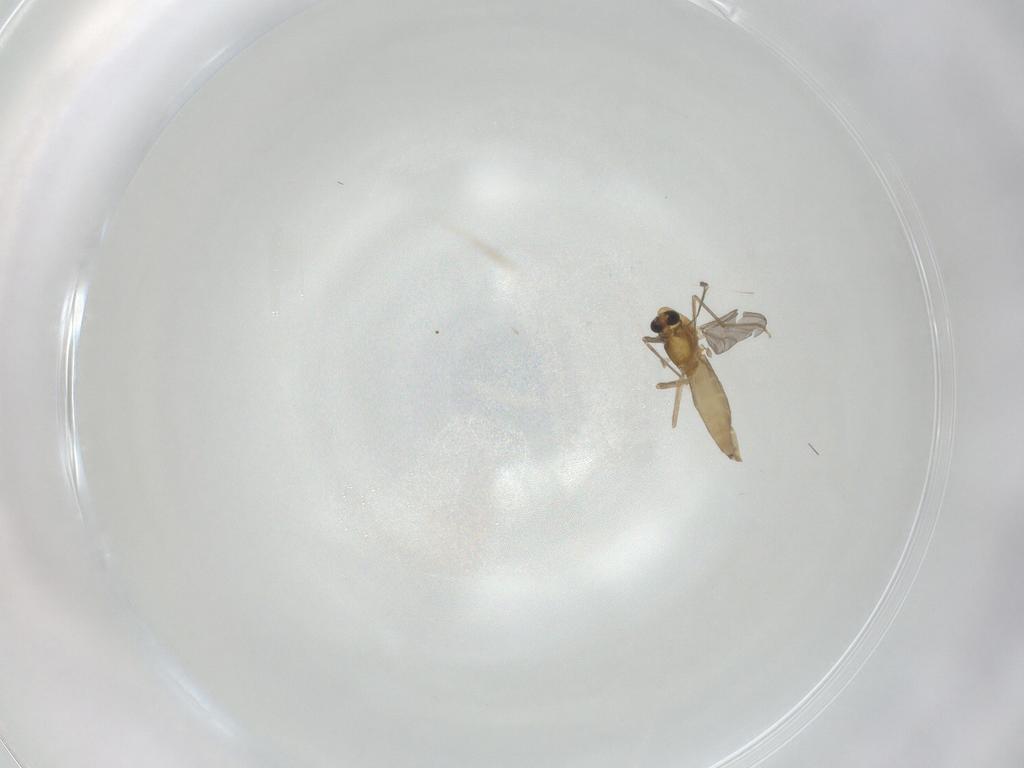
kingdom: Animalia
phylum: Arthropoda
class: Insecta
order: Diptera
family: Chironomidae
